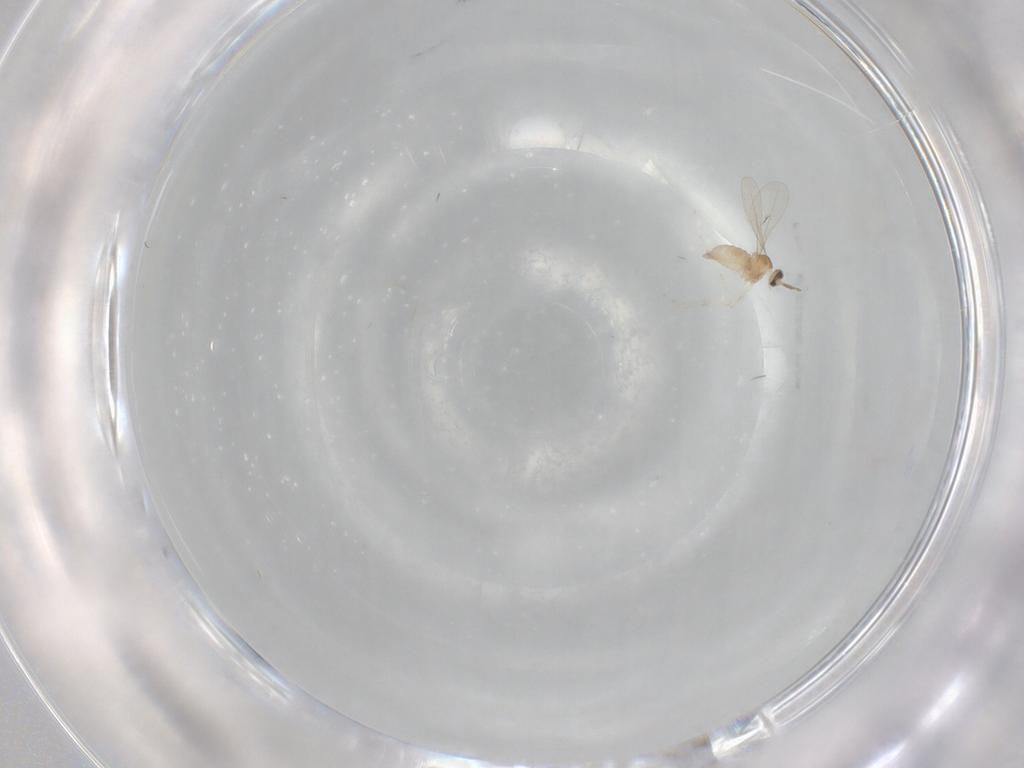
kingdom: Animalia
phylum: Arthropoda
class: Insecta
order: Diptera
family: Drosophilidae
